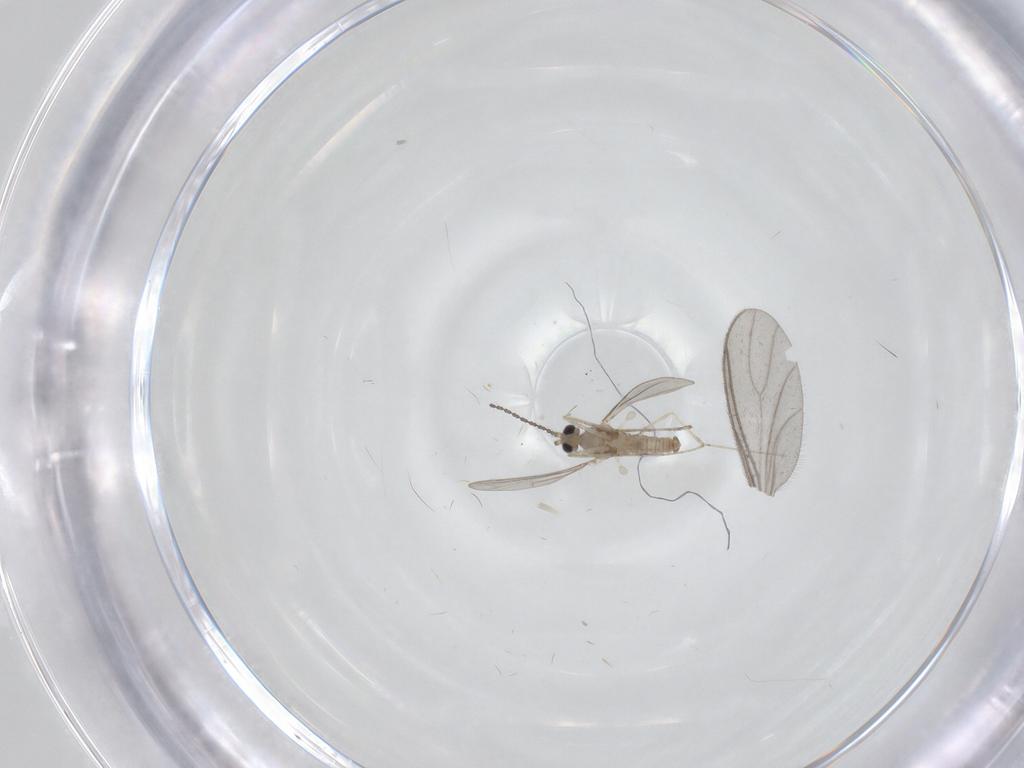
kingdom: Animalia
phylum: Arthropoda
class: Insecta
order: Diptera
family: Cecidomyiidae
